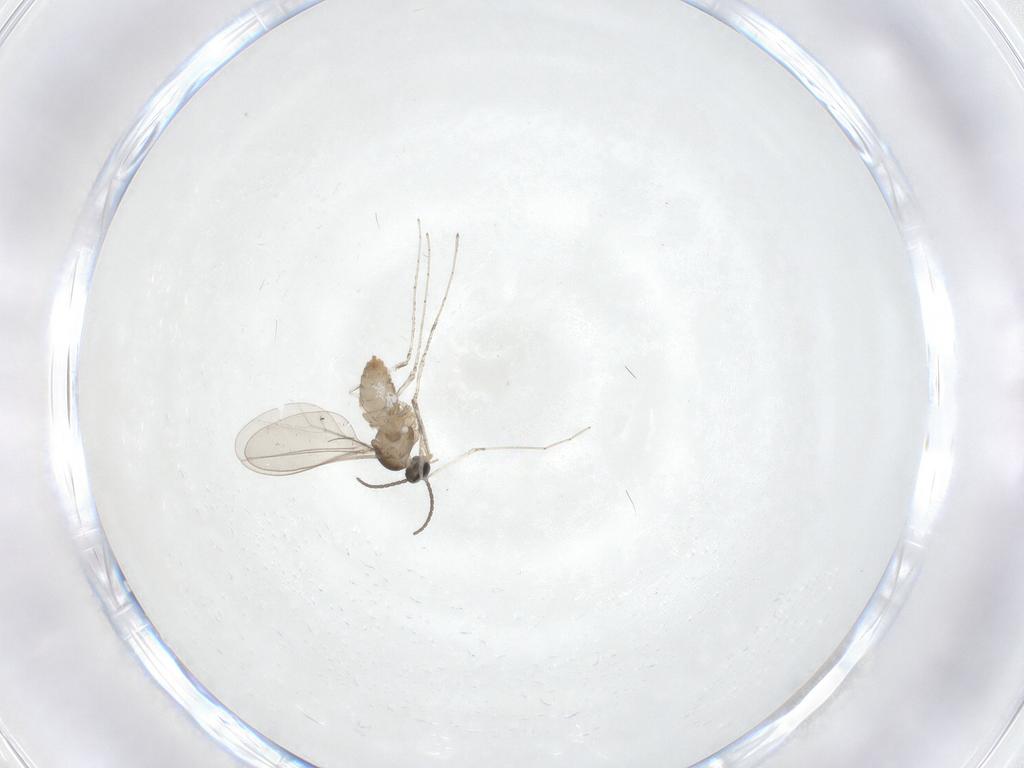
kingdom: Animalia
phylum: Arthropoda
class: Insecta
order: Diptera
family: Cecidomyiidae
